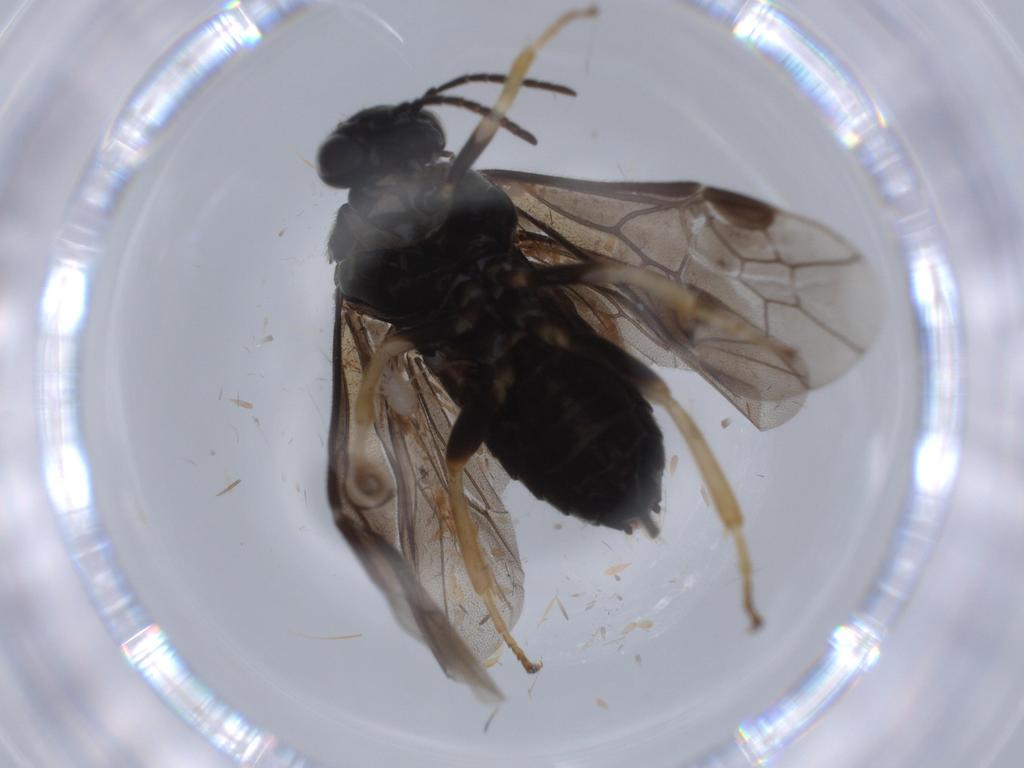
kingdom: Animalia
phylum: Arthropoda
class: Insecta
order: Hymenoptera
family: Tenthredinidae
